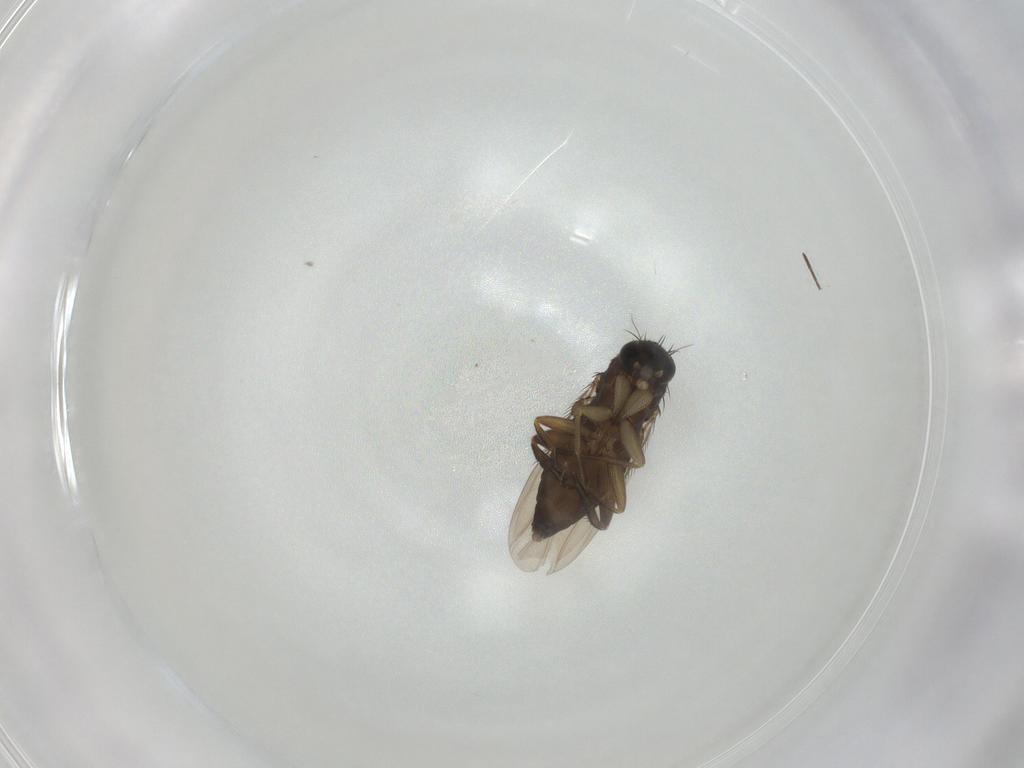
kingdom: Animalia
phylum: Arthropoda
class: Insecta
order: Diptera
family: Phoridae
